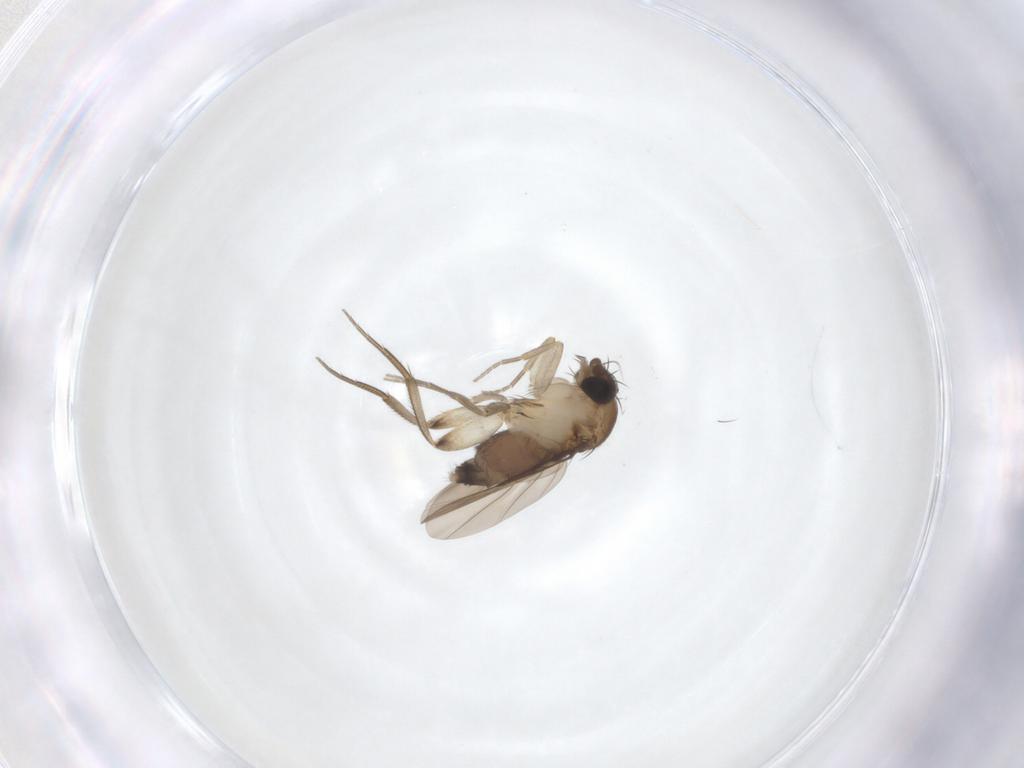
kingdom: Animalia
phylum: Arthropoda
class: Insecta
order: Diptera
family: Phoridae
